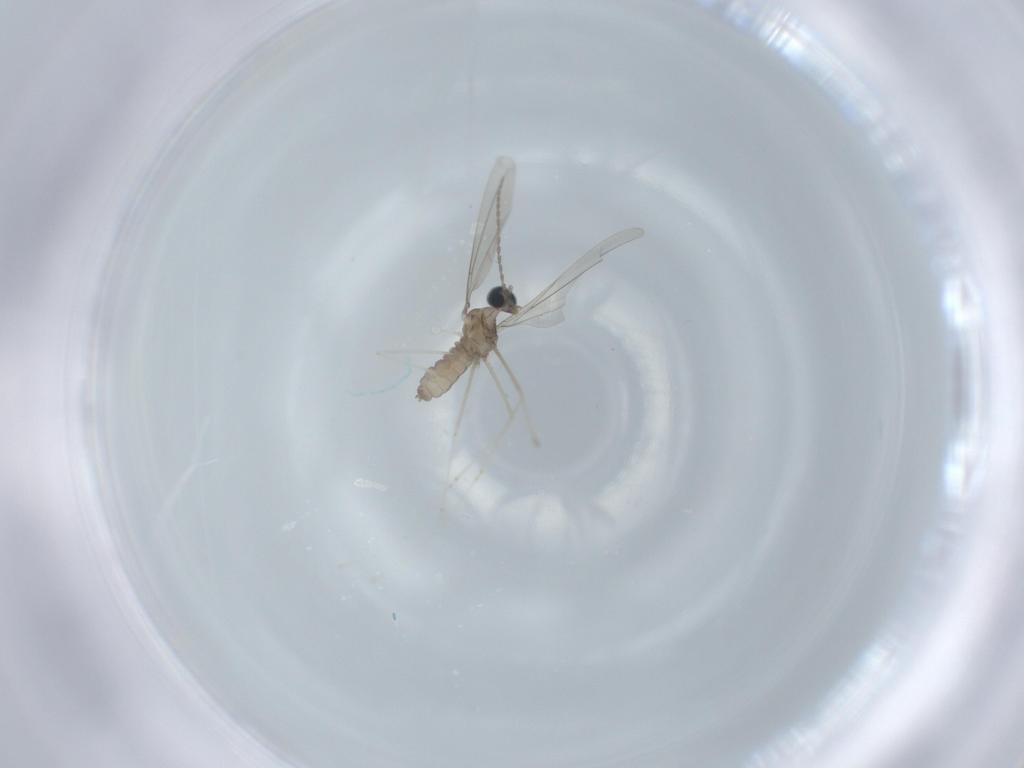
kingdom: Animalia
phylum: Arthropoda
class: Insecta
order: Diptera
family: Cecidomyiidae
